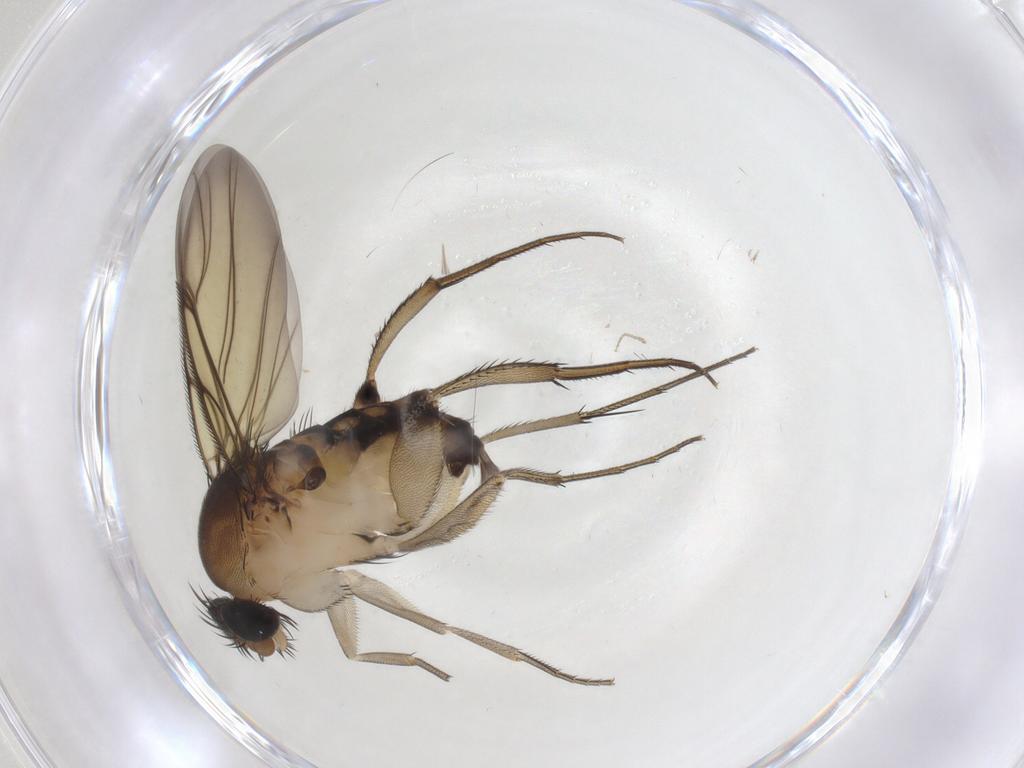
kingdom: Animalia
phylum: Arthropoda
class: Insecta
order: Diptera
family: Phoridae
